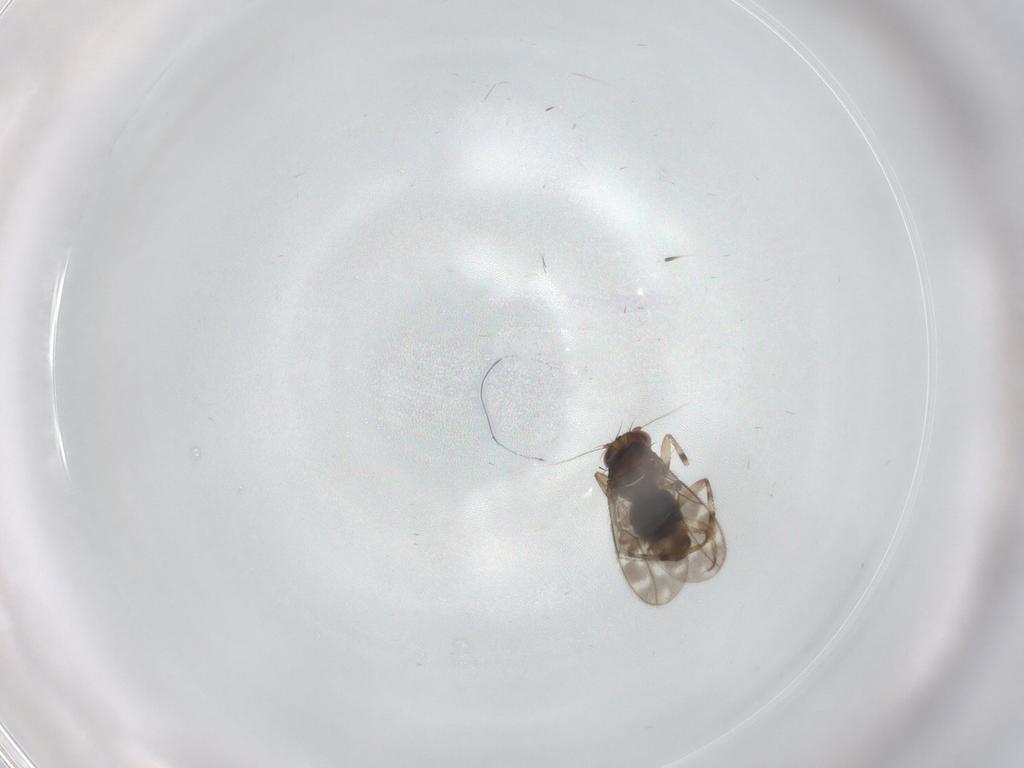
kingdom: Animalia
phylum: Arthropoda
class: Insecta
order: Diptera
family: Sphaeroceridae
